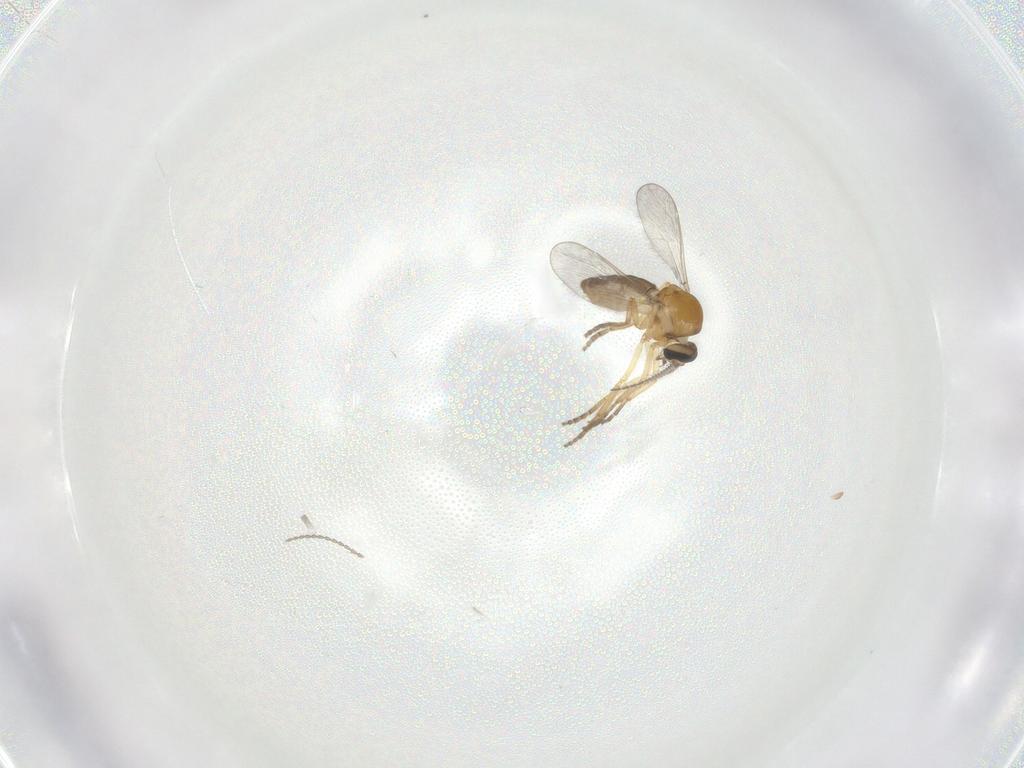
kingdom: Animalia
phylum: Arthropoda
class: Insecta
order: Diptera
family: Ceratopogonidae
